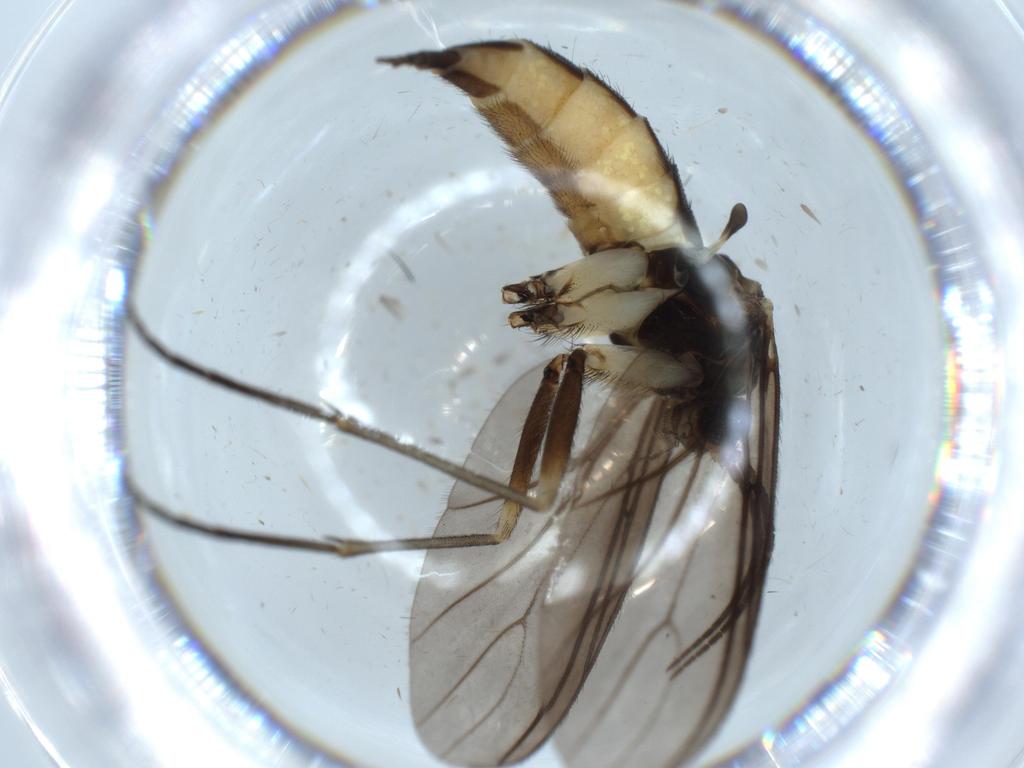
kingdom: Animalia
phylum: Arthropoda
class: Insecta
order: Diptera
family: Sciaridae
